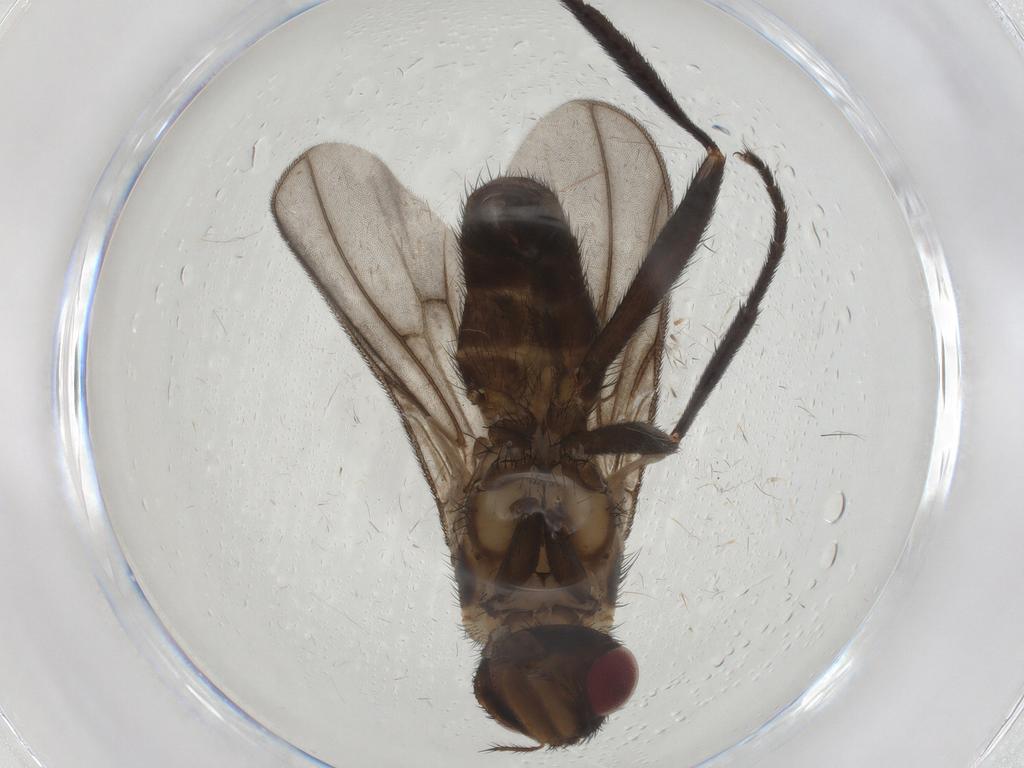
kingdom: Animalia
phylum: Arthropoda
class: Insecta
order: Diptera
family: Calliphoridae
